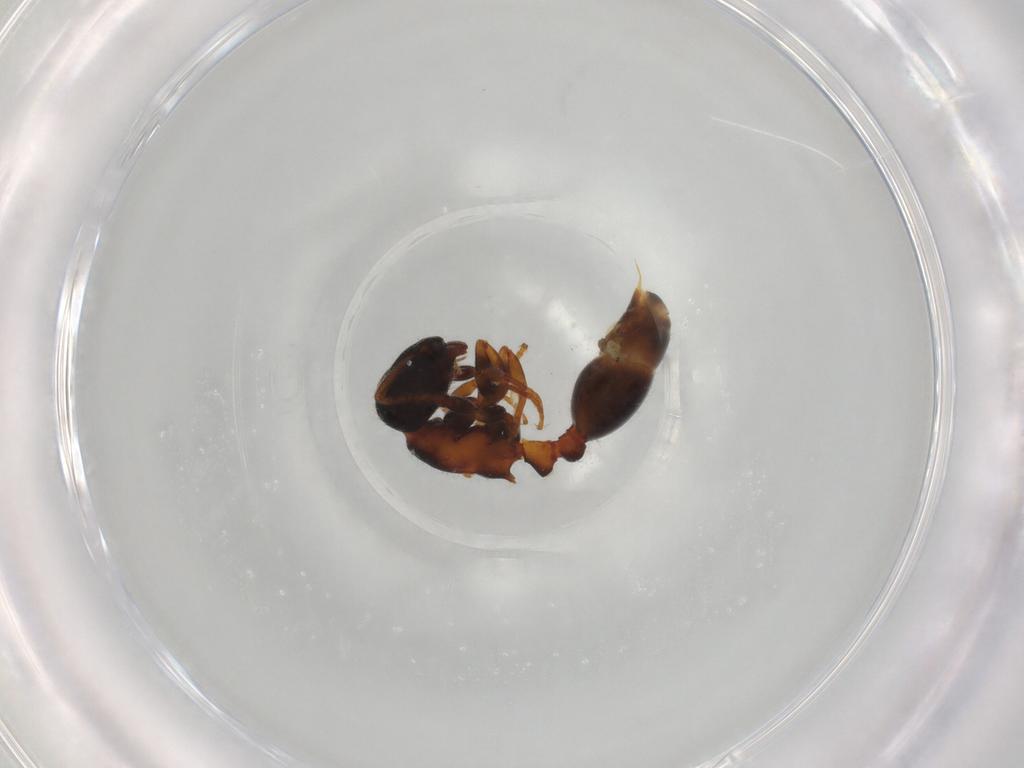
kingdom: Animalia
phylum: Arthropoda
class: Insecta
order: Hymenoptera
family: Formicidae
